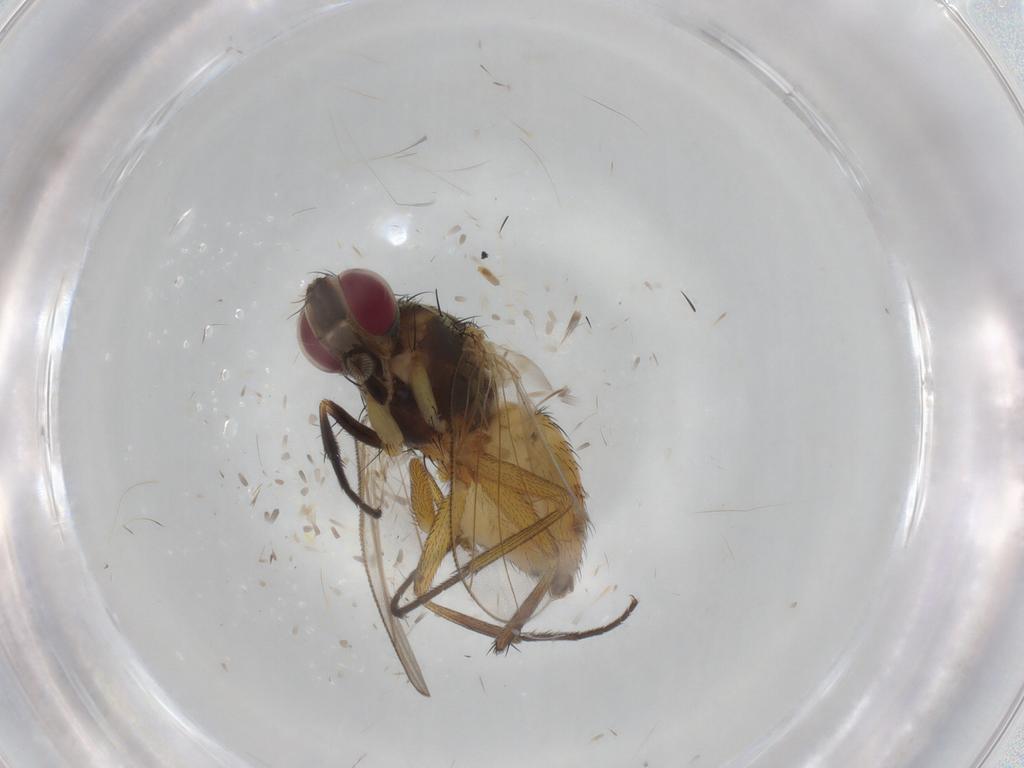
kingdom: Animalia
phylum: Arthropoda
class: Insecta
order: Diptera
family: Muscidae
